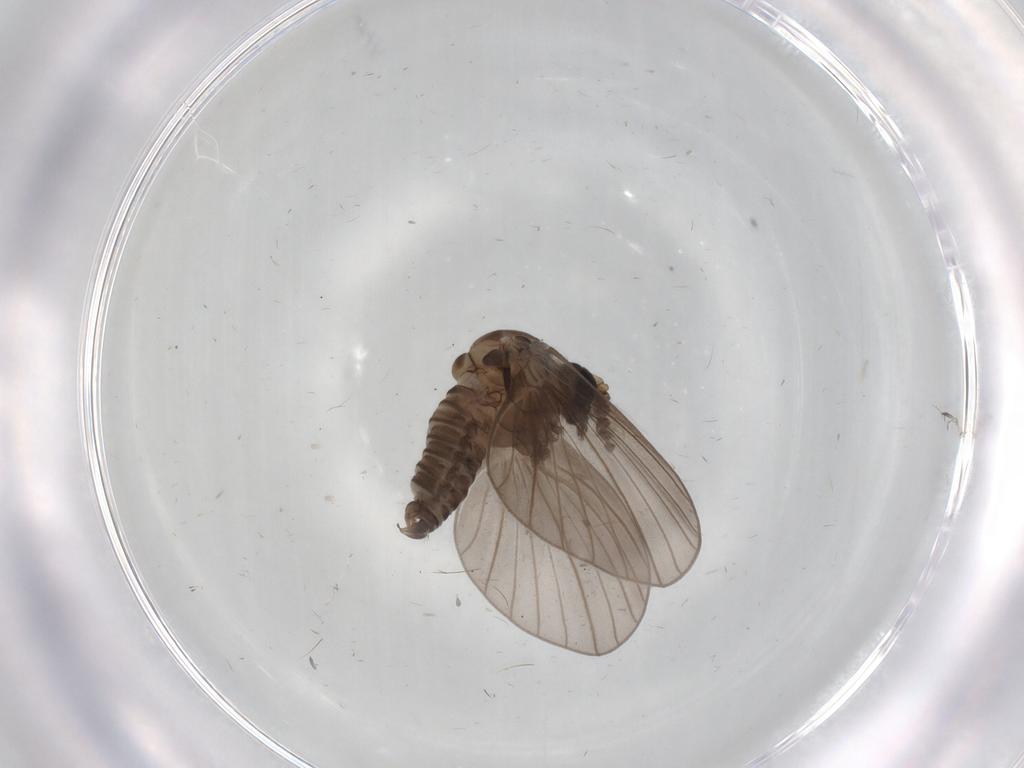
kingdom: Animalia
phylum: Arthropoda
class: Insecta
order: Diptera
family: Psychodidae
